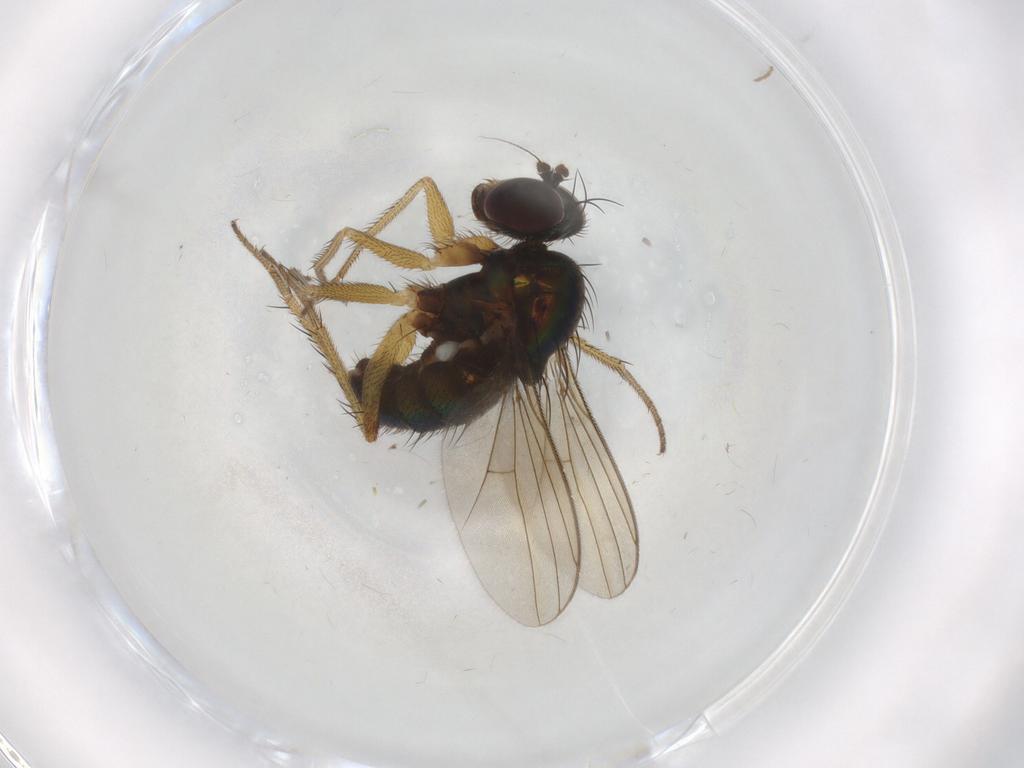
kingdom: Animalia
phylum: Arthropoda
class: Insecta
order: Diptera
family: Dolichopodidae
